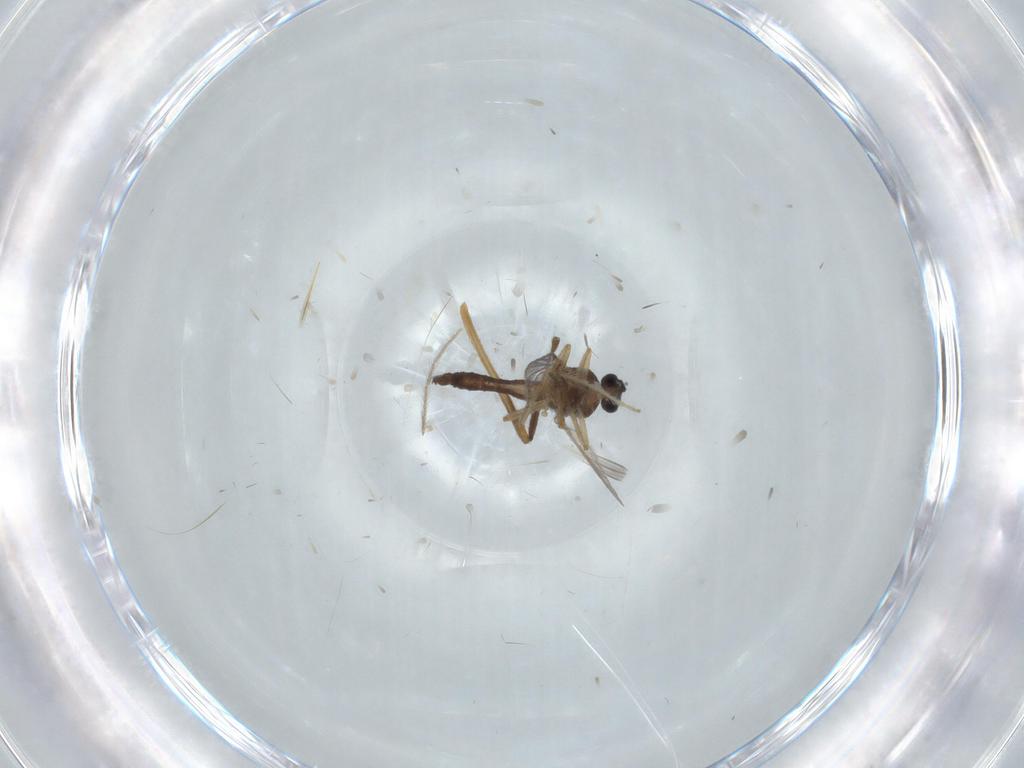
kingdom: Animalia
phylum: Arthropoda
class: Insecta
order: Diptera
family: Ceratopogonidae
